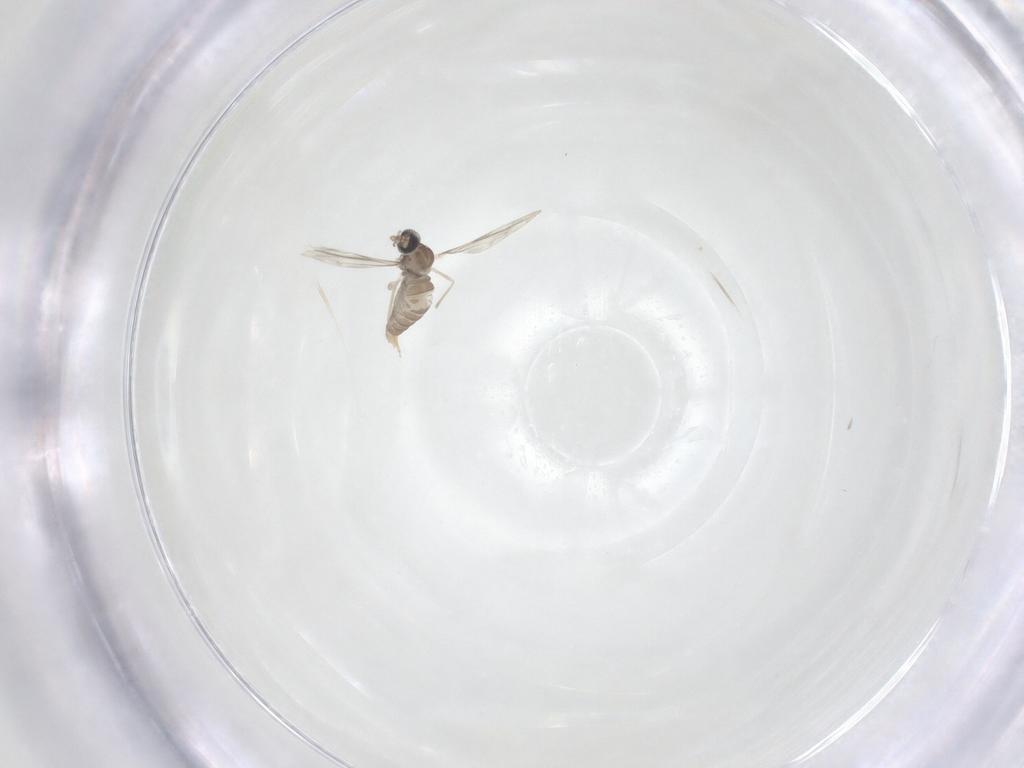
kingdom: Animalia
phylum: Arthropoda
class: Insecta
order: Diptera
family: Cecidomyiidae
